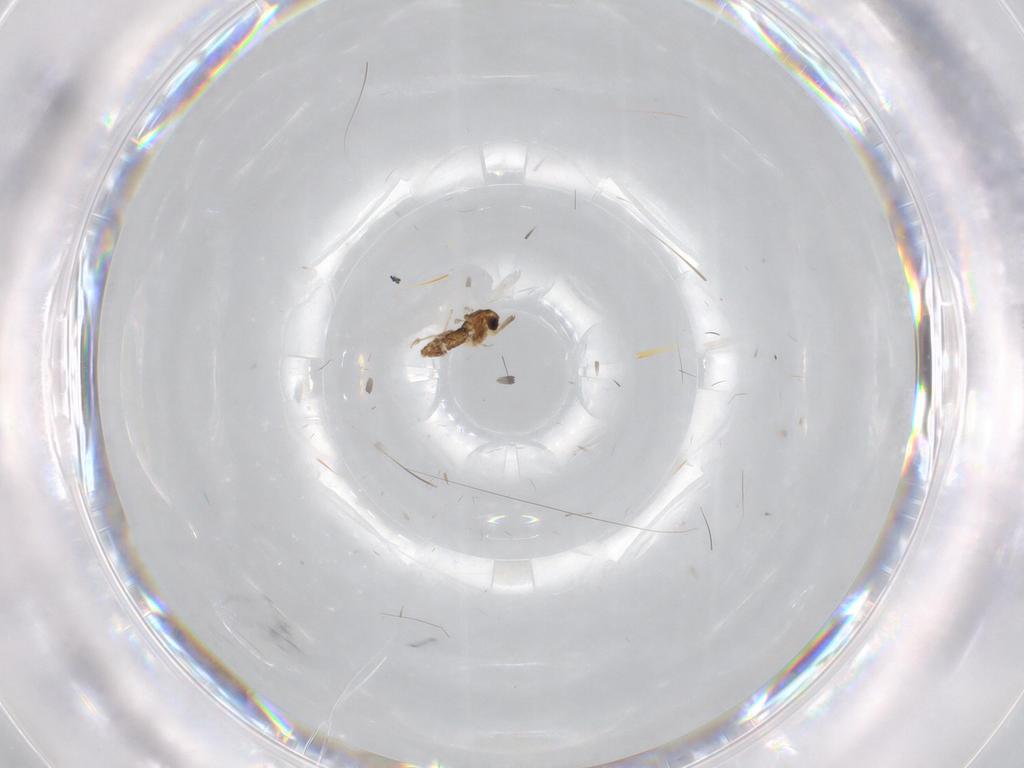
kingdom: Animalia
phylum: Arthropoda
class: Insecta
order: Diptera
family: Chironomidae
